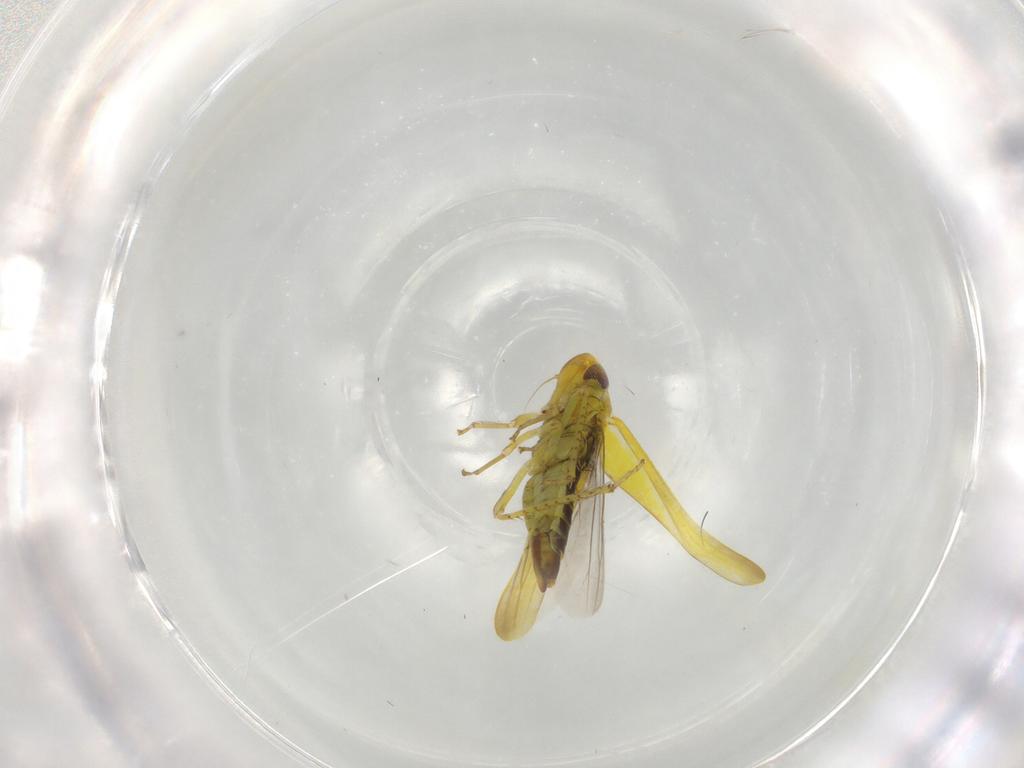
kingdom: Animalia
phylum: Arthropoda
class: Insecta
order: Hemiptera
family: Cicadellidae
